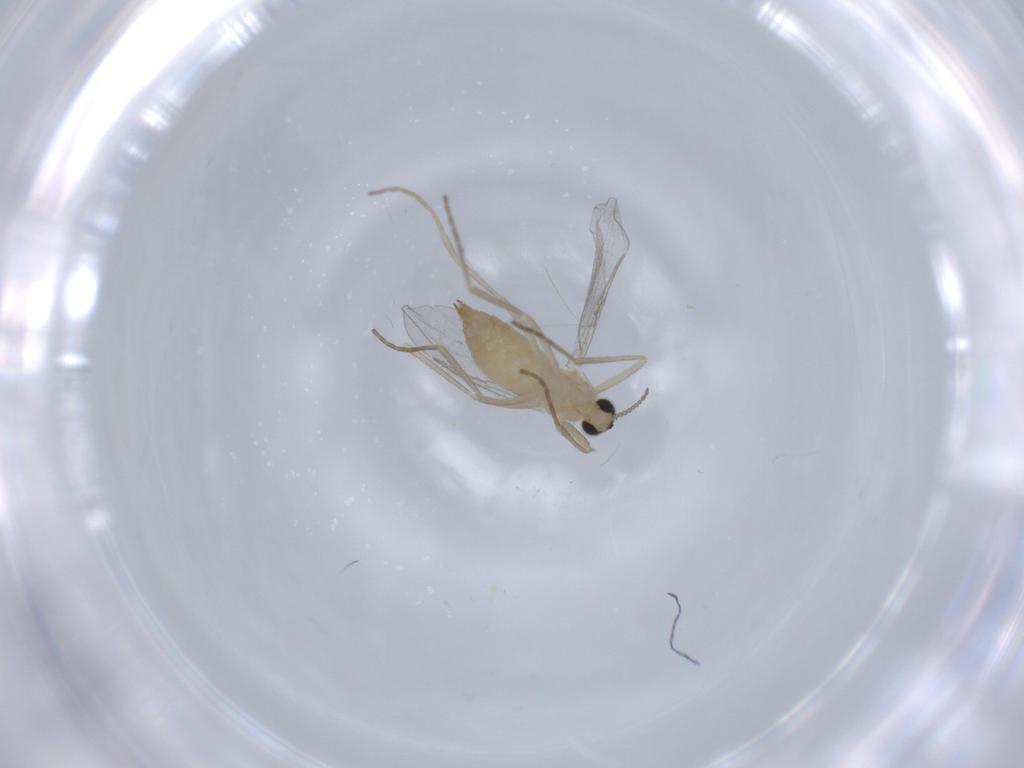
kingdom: Animalia
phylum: Arthropoda
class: Insecta
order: Diptera
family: Cecidomyiidae
